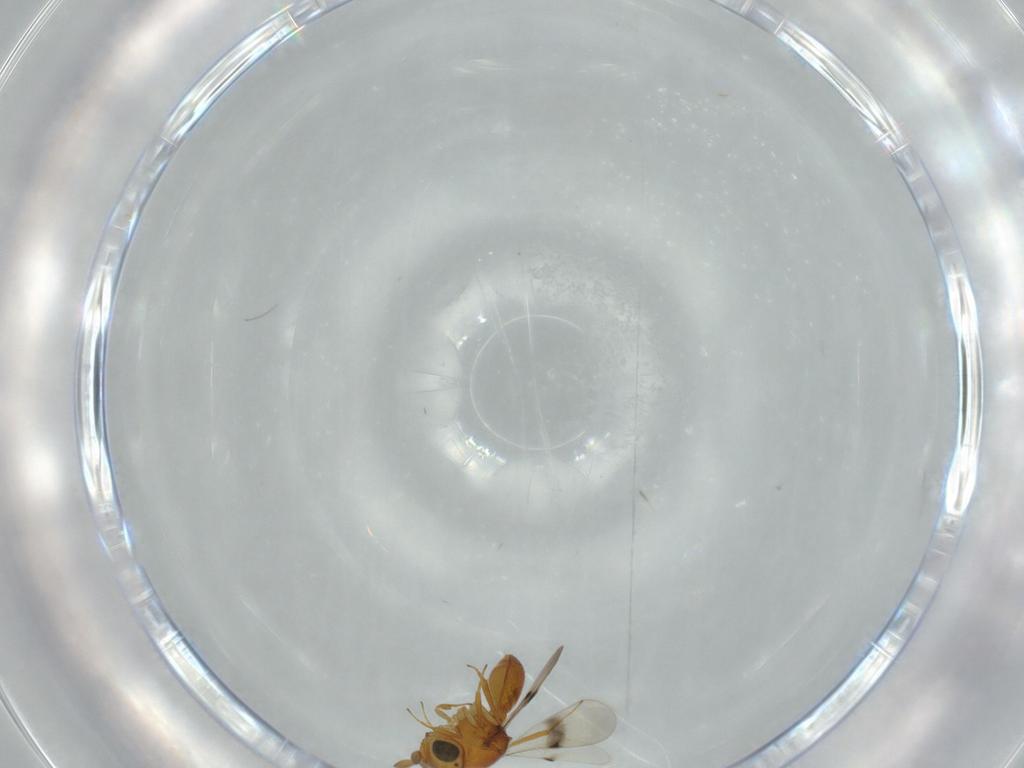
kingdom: Animalia
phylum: Arthropoda
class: Insecta
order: Hymenoptera
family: Scelionidae
